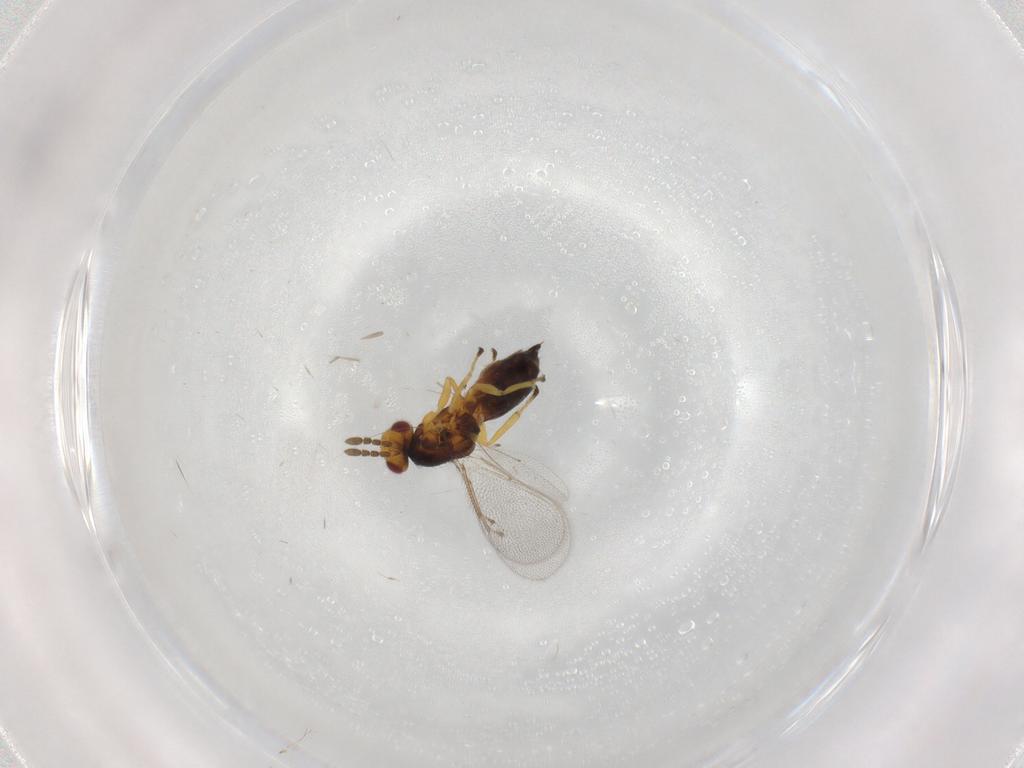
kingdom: Animalia
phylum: Arthropoda
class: Insecta
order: Hymenoptera
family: Eulophidae
